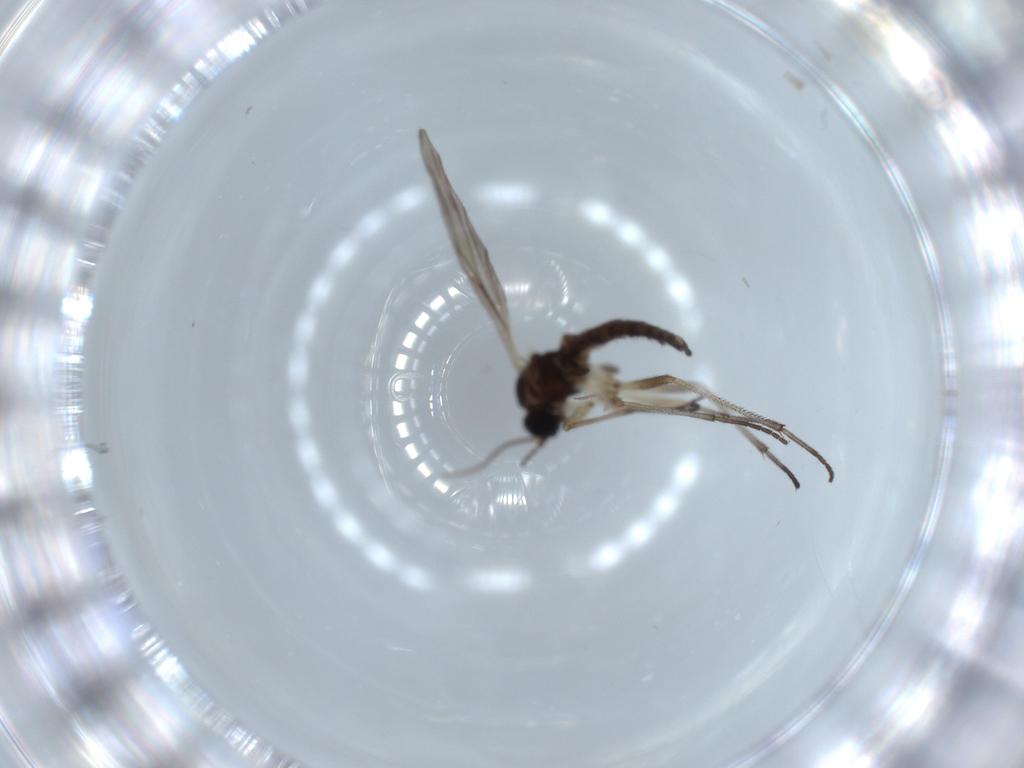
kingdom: Animalia
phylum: Arthropoda
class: Insecta
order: Diptera
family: Sciaridae
